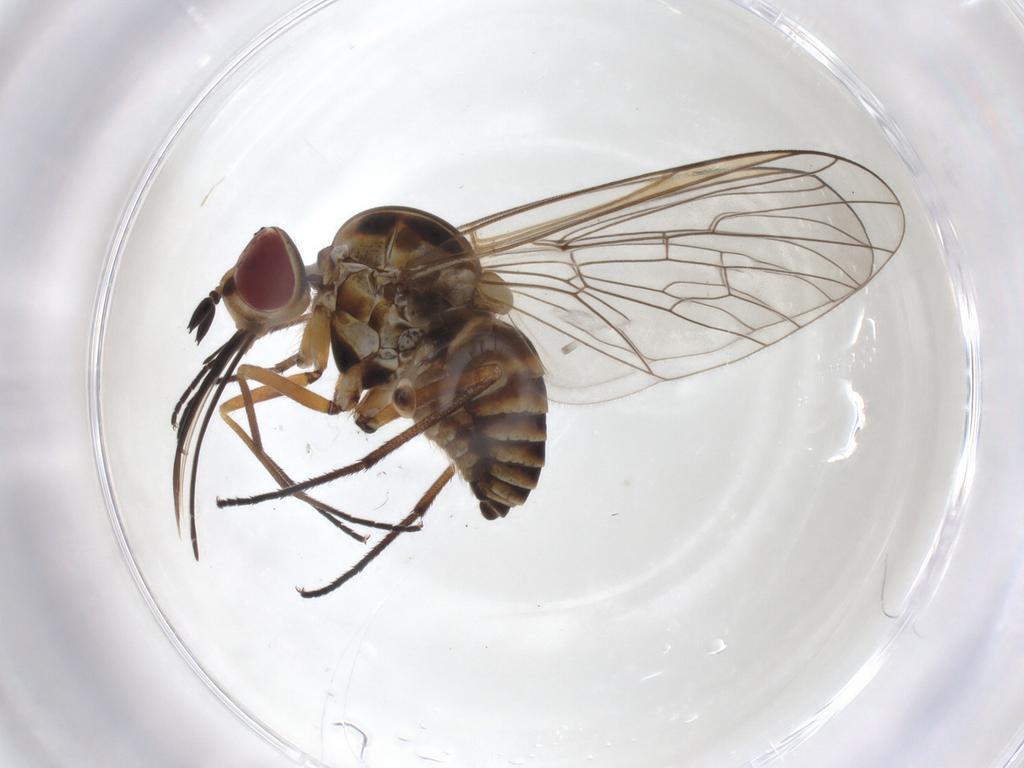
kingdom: Animalia
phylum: Arthropoda
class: Insecta
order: Diptera
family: Bombyliidae
